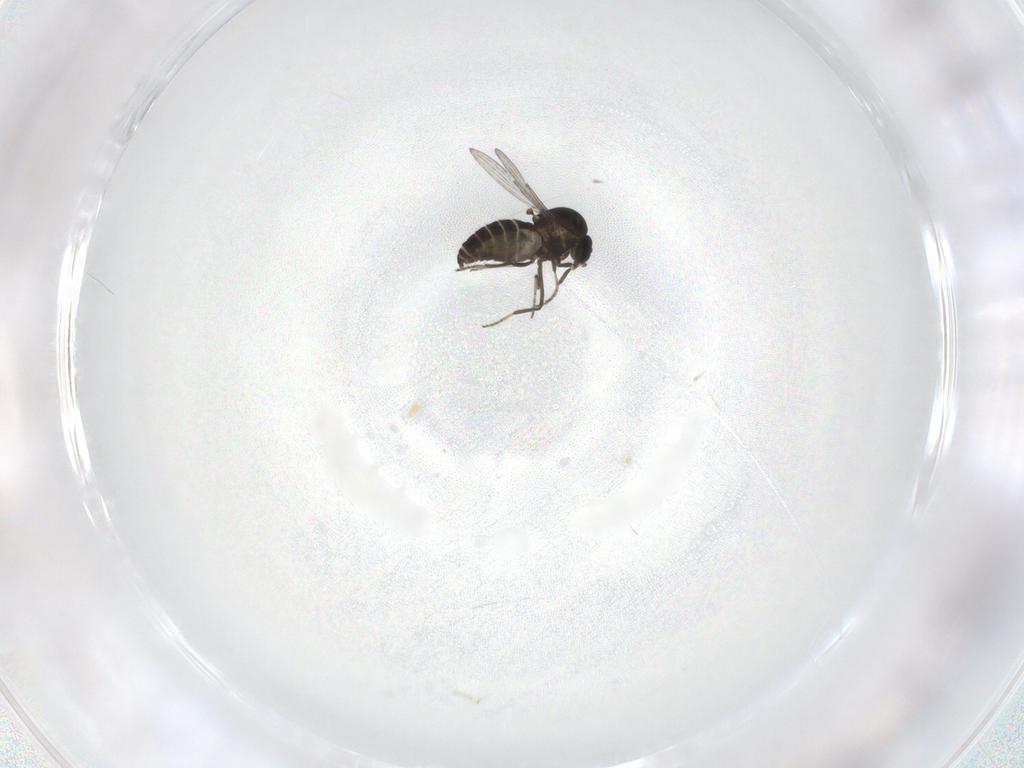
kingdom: Animalia
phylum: Arthropoda
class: Insecta
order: Diptera
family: Ceratopogonidae
